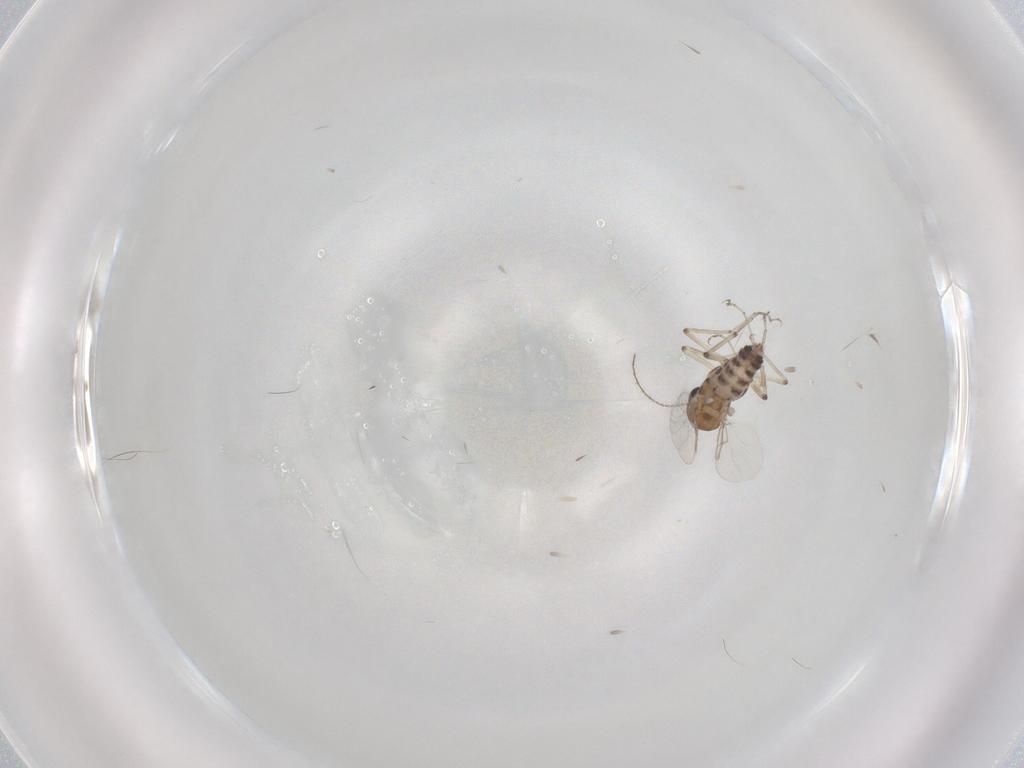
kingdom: Animalia
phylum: Arthropoda
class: Insecta
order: Diptera
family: Ceratopogonidae
